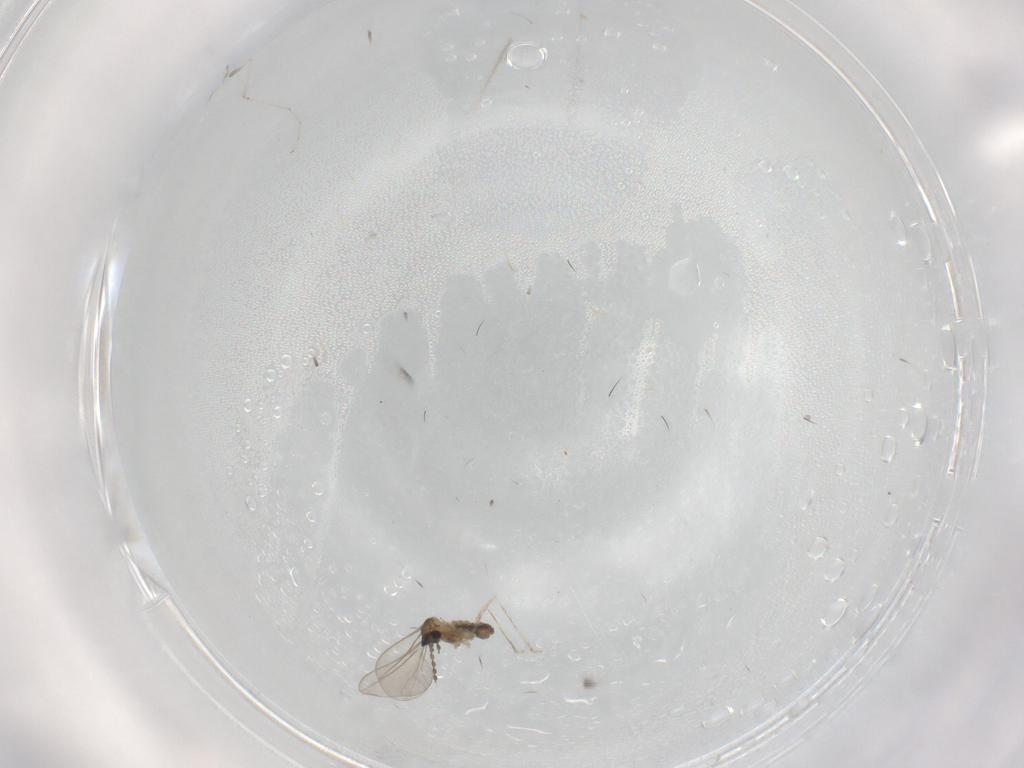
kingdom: Animalia
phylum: Arthropoda
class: Insecta
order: Diptera
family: Cecidomyiidae
